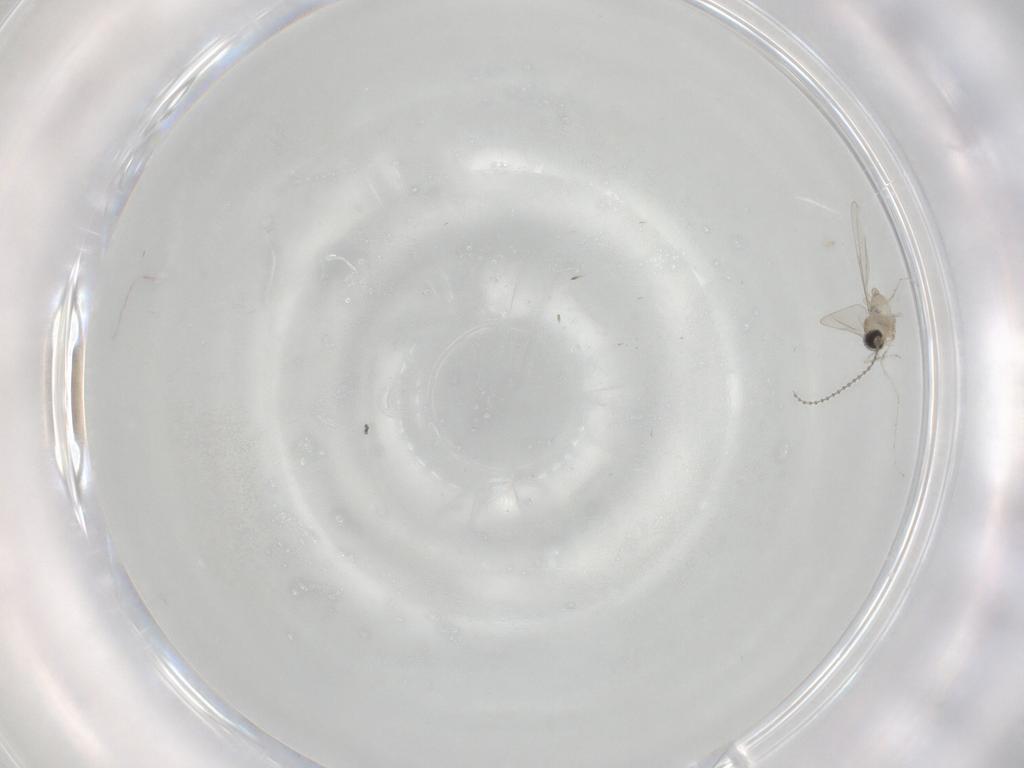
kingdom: Animalia
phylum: Arthropoda
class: Insecta
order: Diptera
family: Cecidomyiidae
